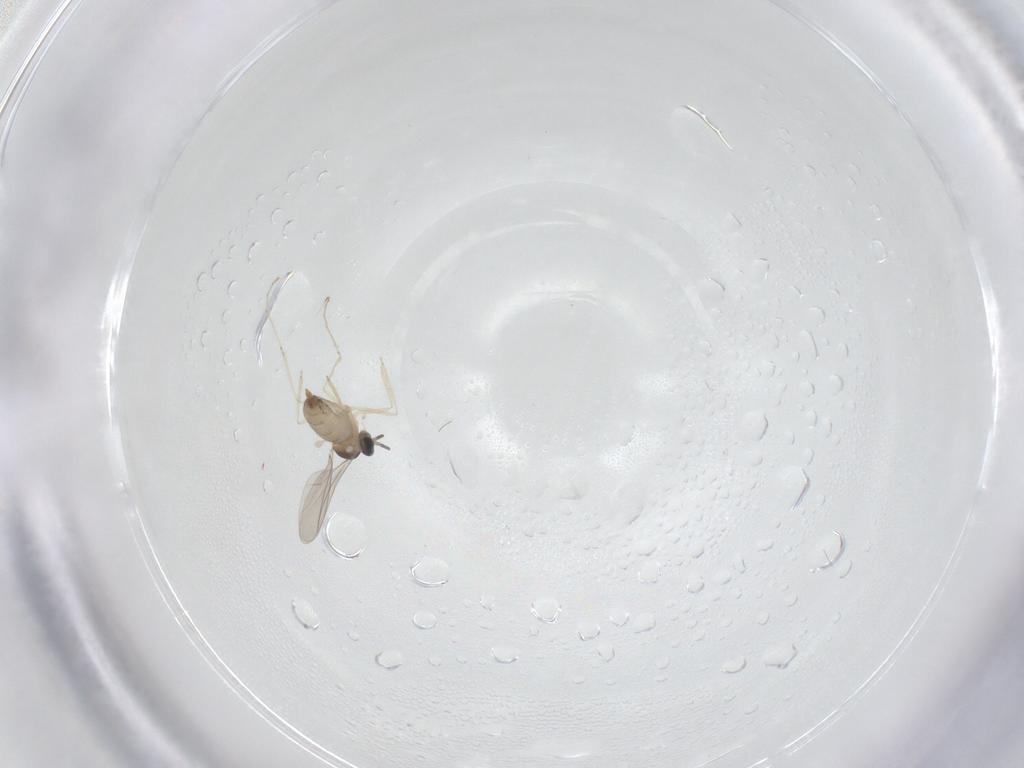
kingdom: Animalia
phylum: Arthropoda
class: Insecta
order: Diptera
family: Cecidomyiidae
